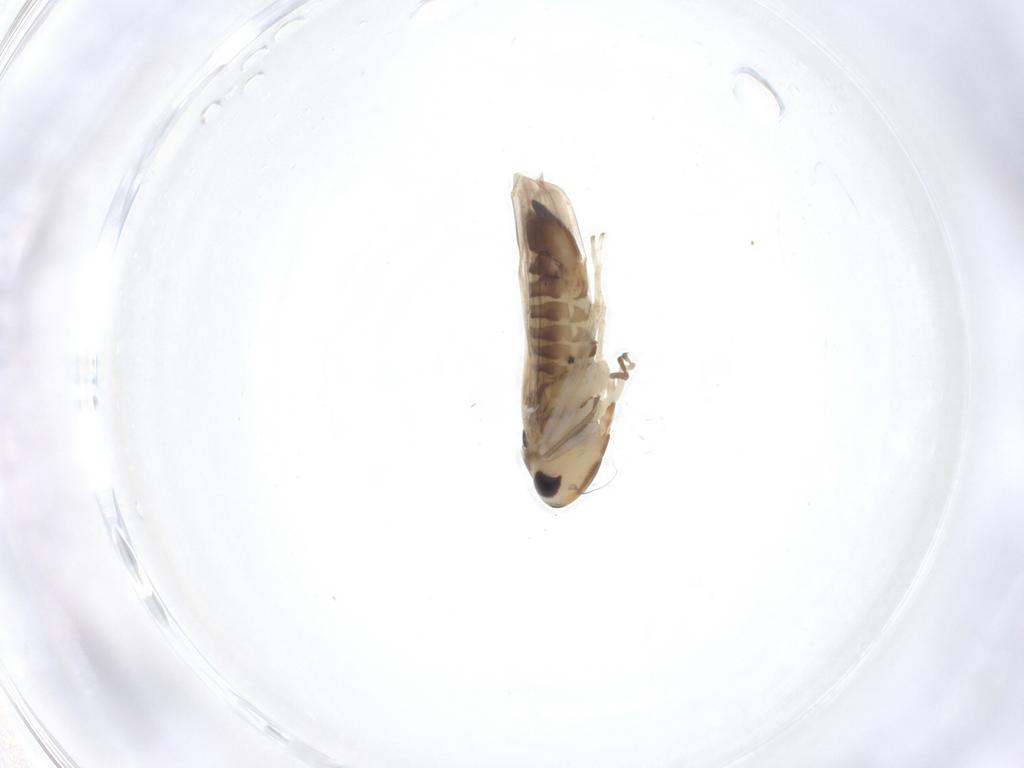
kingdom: Animalia
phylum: Arthropoda
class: Insecta
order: Hemiptera
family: Cicadellidae
